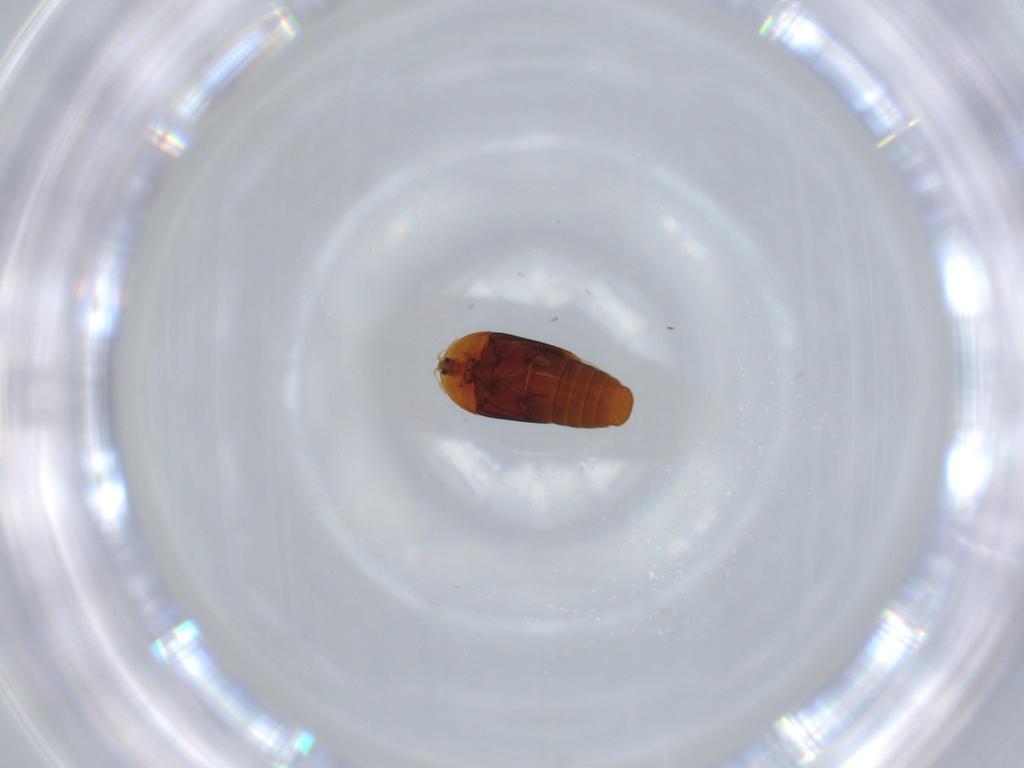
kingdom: Animalia
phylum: Arthropoda
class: Insecta
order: Coleoptera
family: Corylophidae
